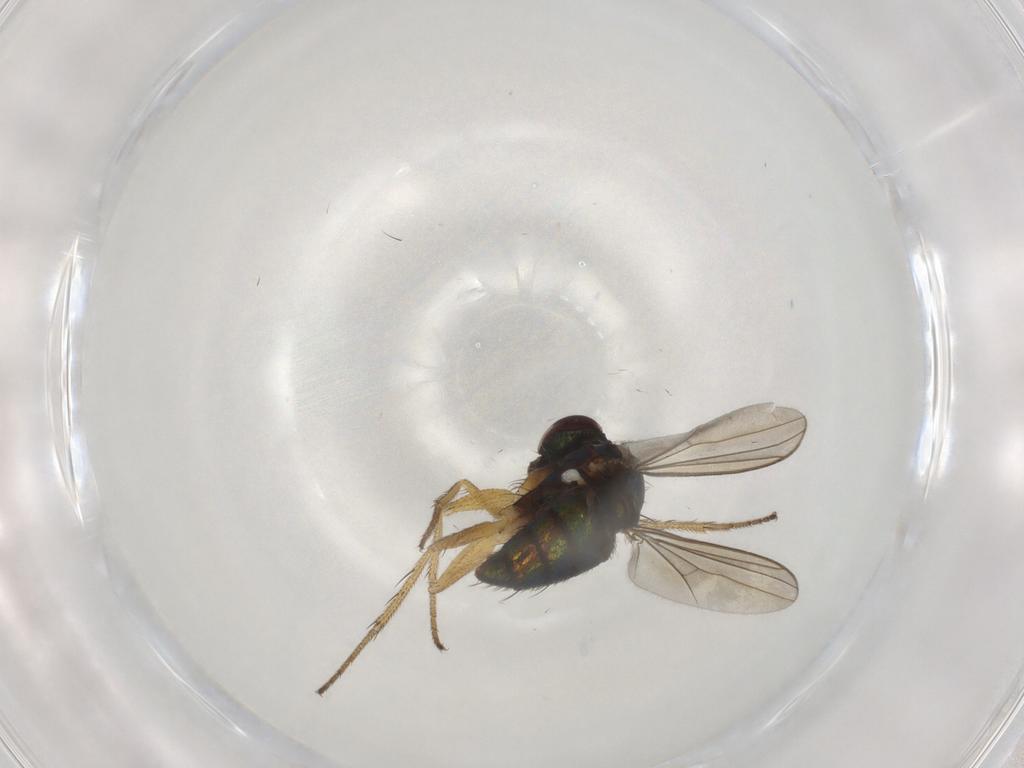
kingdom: Animalia
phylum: Arthropoda
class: Insecta
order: Diptera
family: Dolichopodidae
